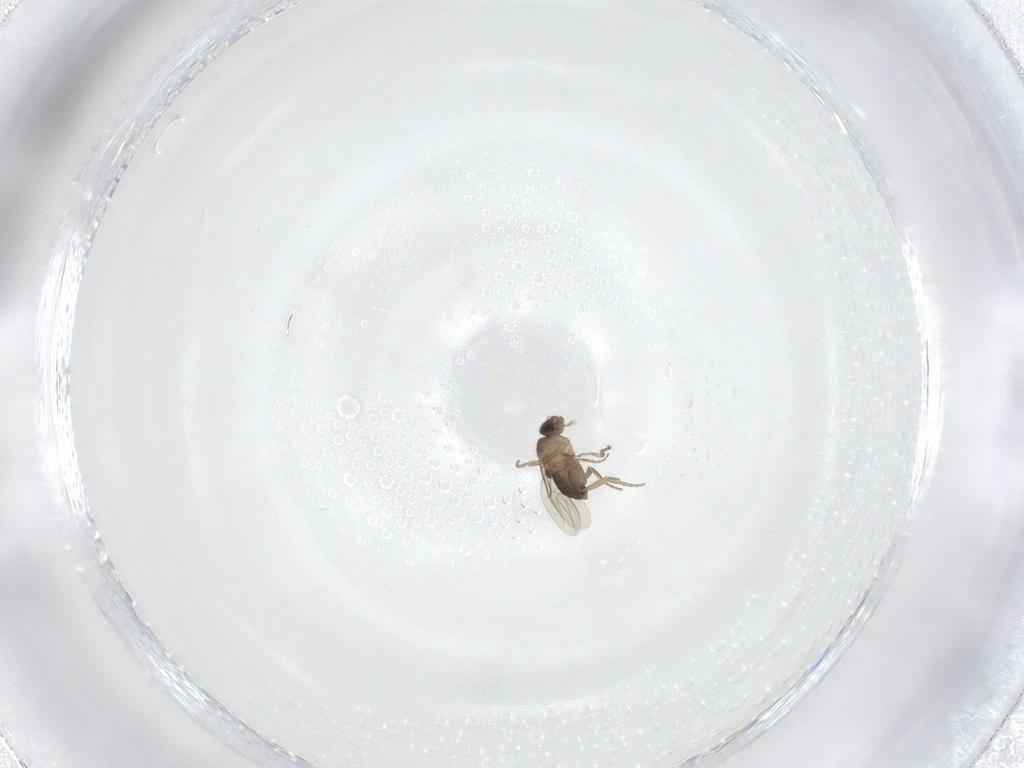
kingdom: Animalia
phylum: Arthropoda
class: Insecta
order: Diptera
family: Phoridae
